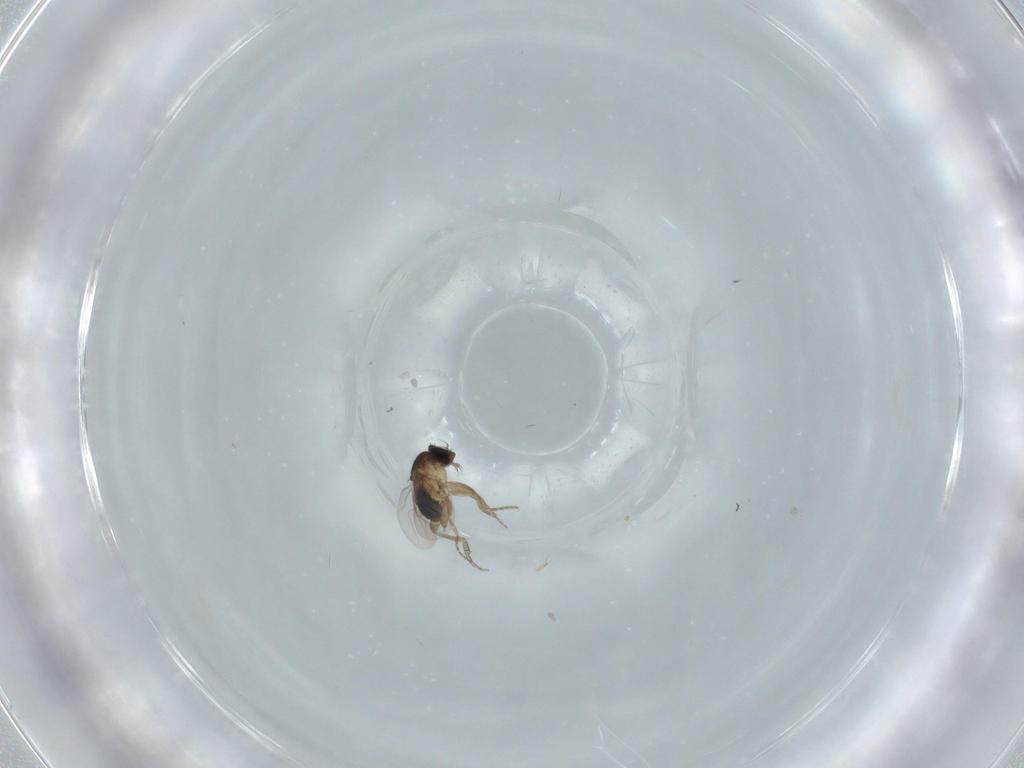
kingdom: Animalia
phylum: Arthropoda
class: Insecta
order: Diptera
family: Phoridae
